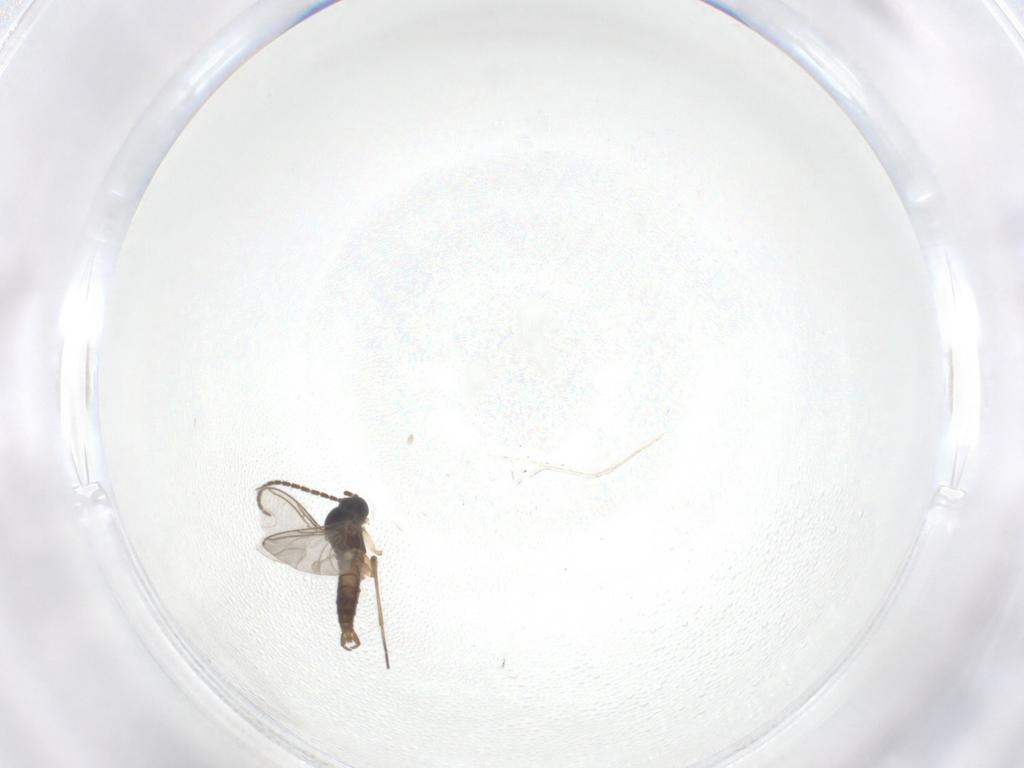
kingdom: Animalia
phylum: Arthropoda
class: Insecta
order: Diptera
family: Sciaridae
